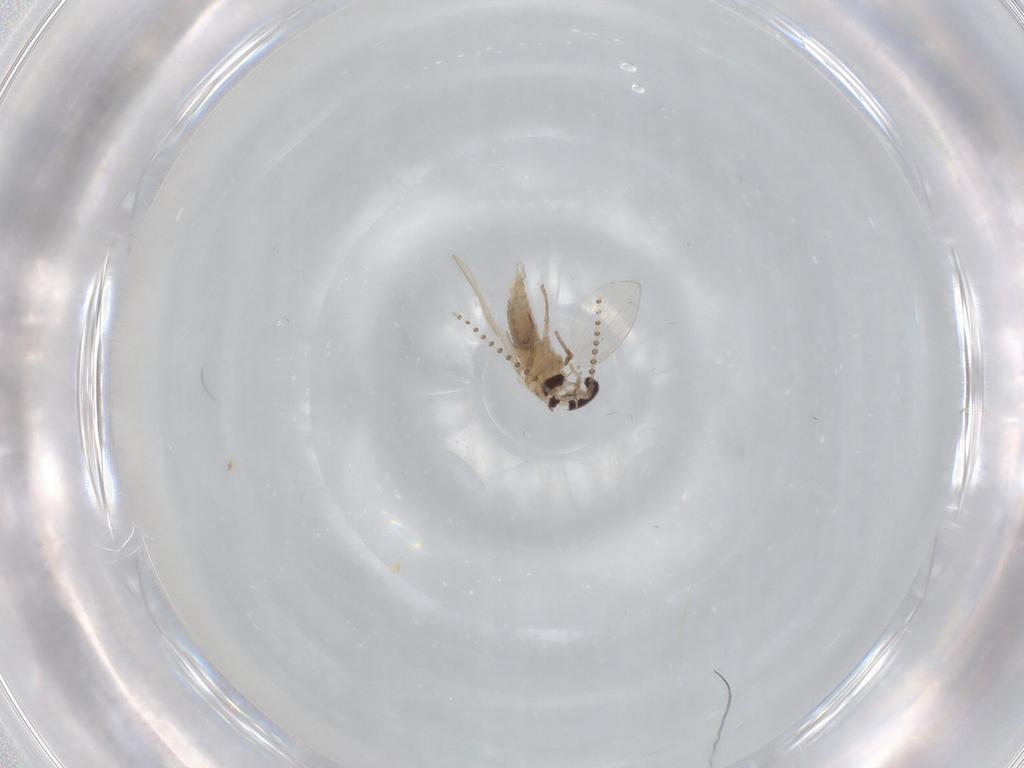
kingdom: Animalia
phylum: Arthropoda
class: Insecta
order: Diptera
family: Psychodidae
